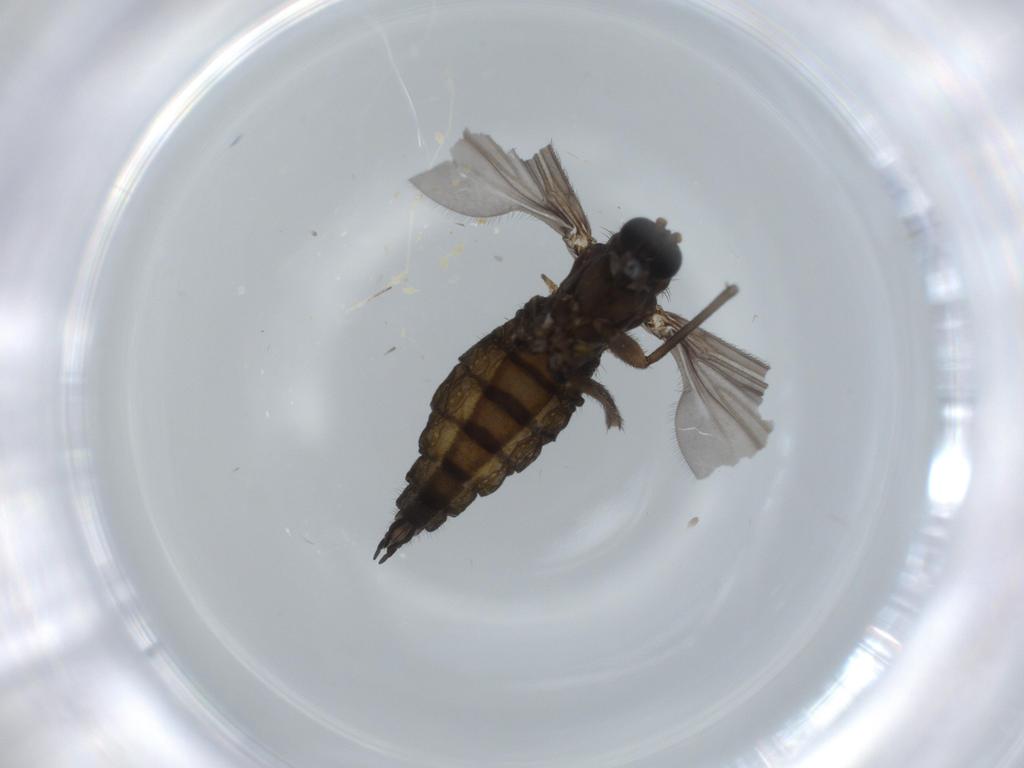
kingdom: Animalia
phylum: Arthropoda
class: Insecta
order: Diptera
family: Sciaridae
